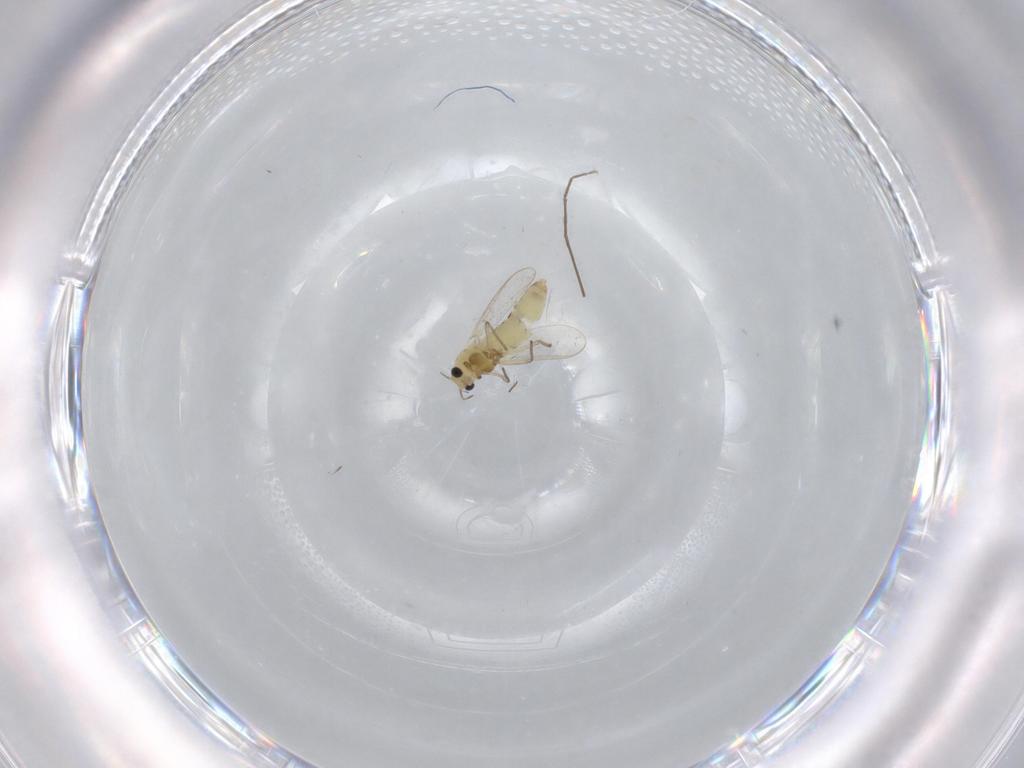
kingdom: Animalia
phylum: Arthropoda
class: Insecta
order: Diptera
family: Chironomidae
